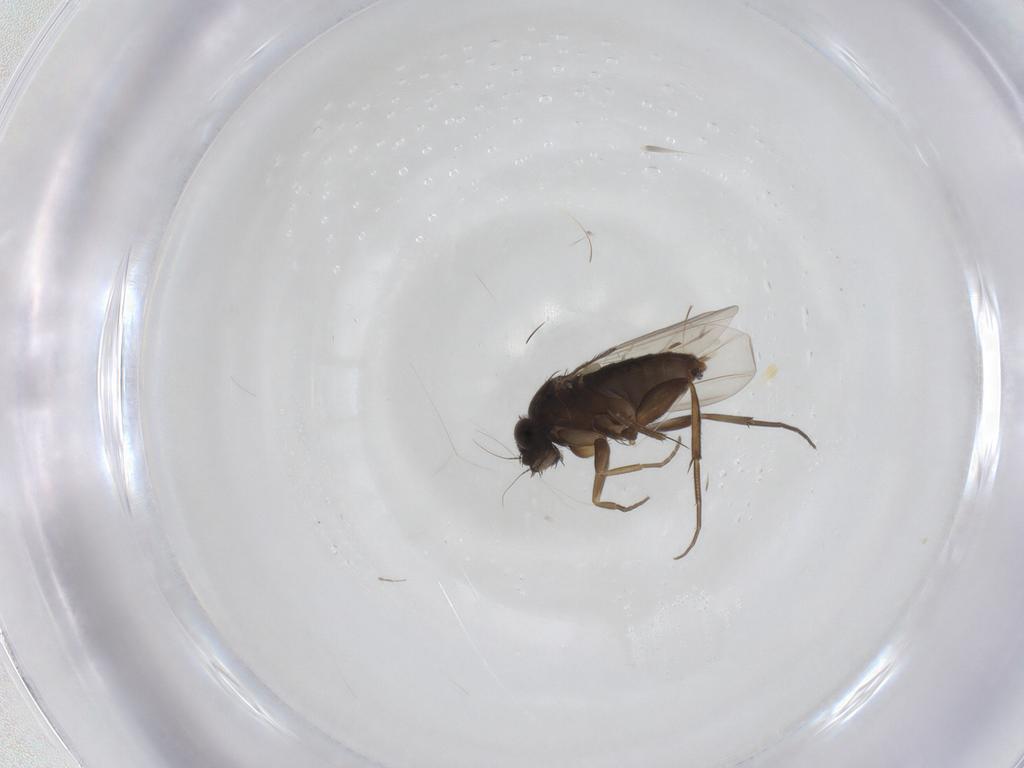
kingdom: Animalia
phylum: Arthropoda
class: Insecta
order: Diptera
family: Phoridae
